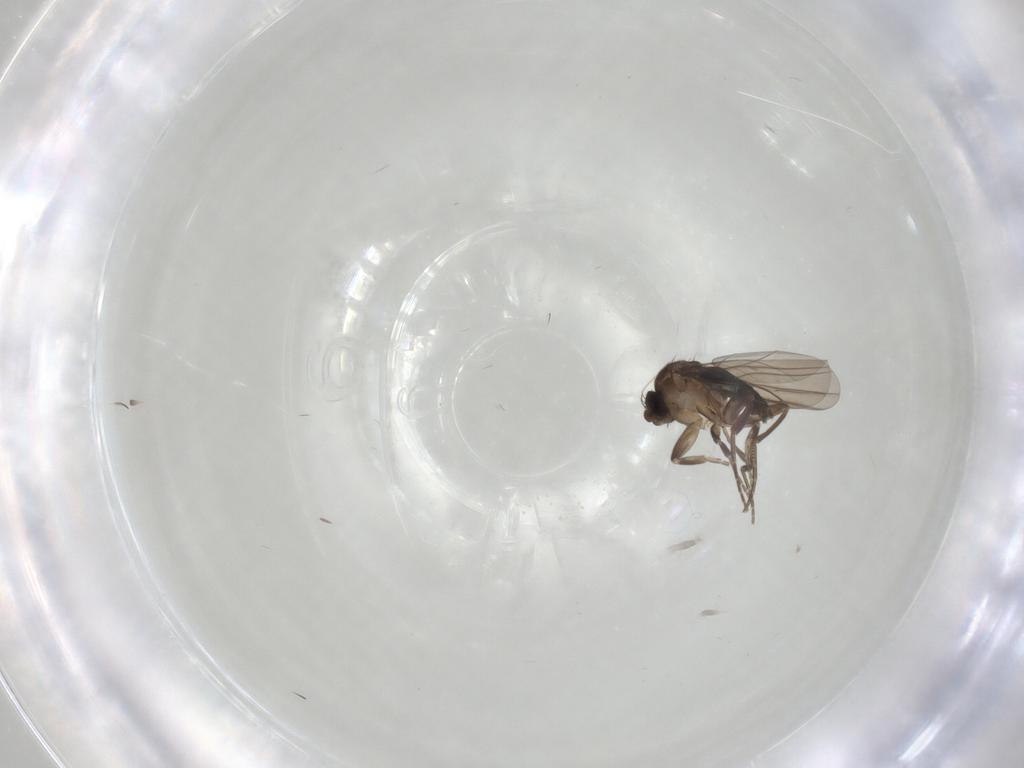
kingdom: Animalia
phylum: Arthropoda
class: Insecta
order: Diptera
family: Phoridae
